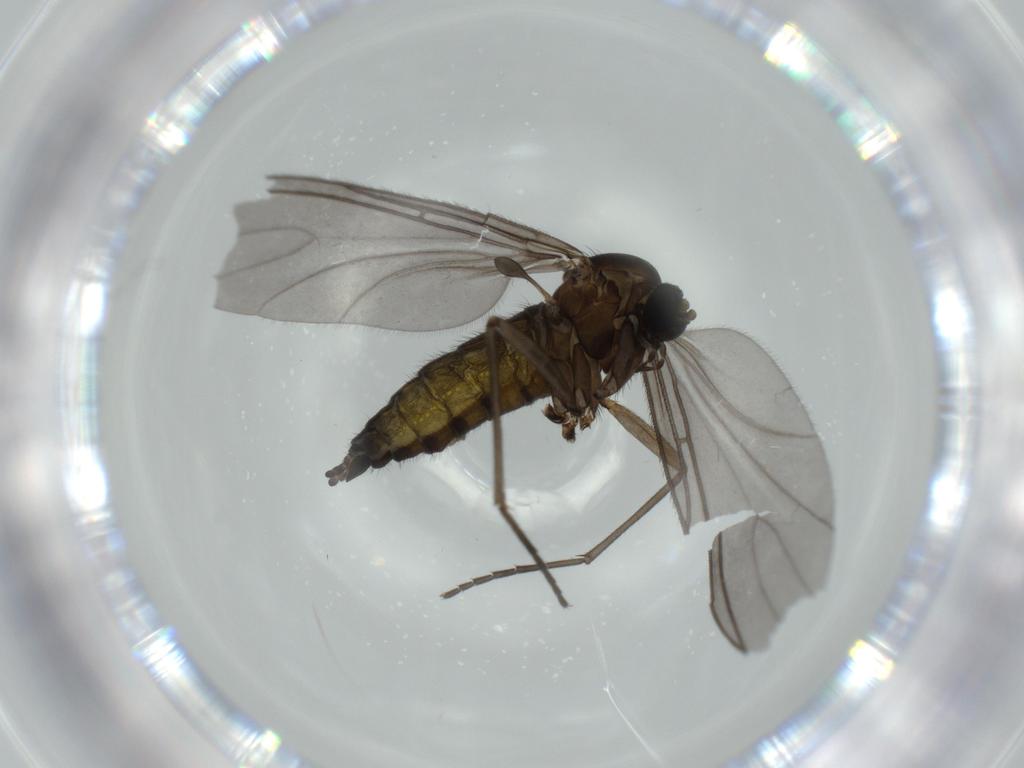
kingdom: Animalia
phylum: Arthropoda
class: Insecta
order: Diptera
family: Sciaridae
